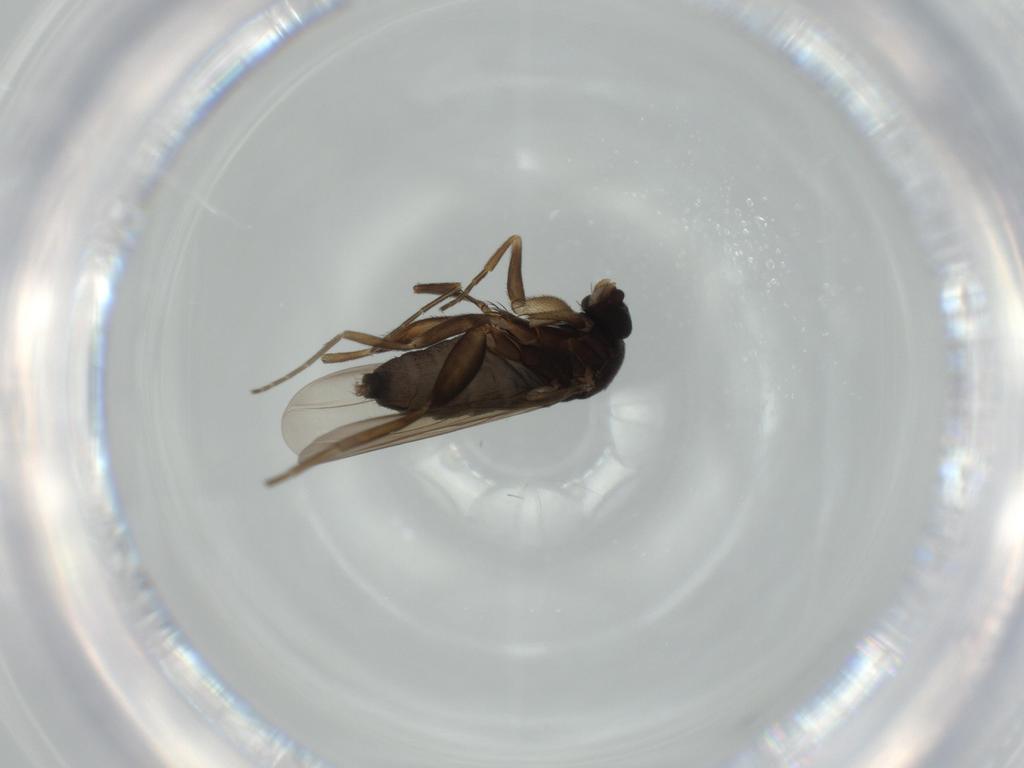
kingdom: Animalia
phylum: Arthropoda
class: Insecta
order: Diptera
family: Phoridae
